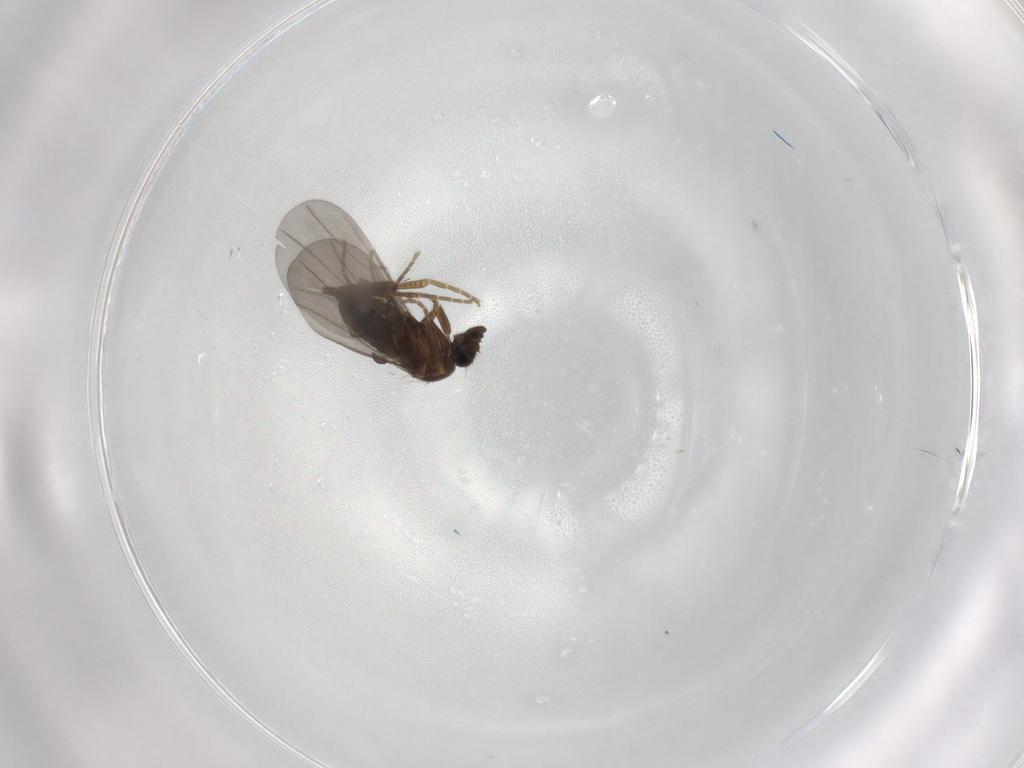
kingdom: Animalia
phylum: Arthropoda
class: Insecta
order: Diptera
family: Phoridae
